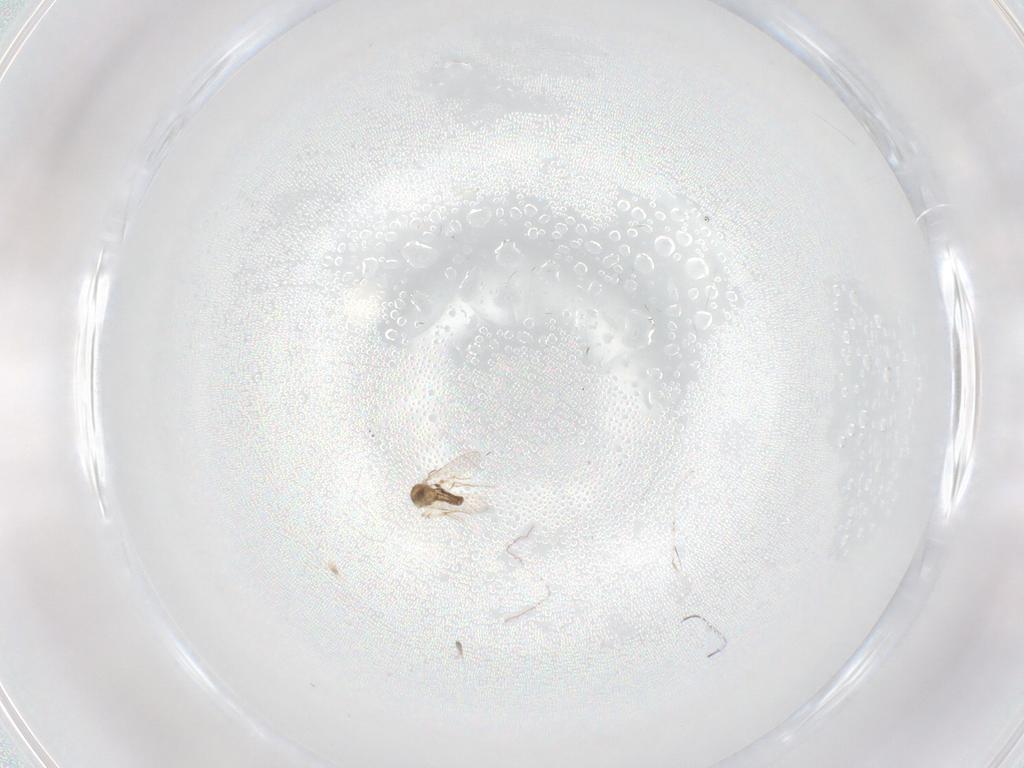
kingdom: Animalia
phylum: Arthropoda
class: Insecta
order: Diptera
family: Ceratopogonidae
